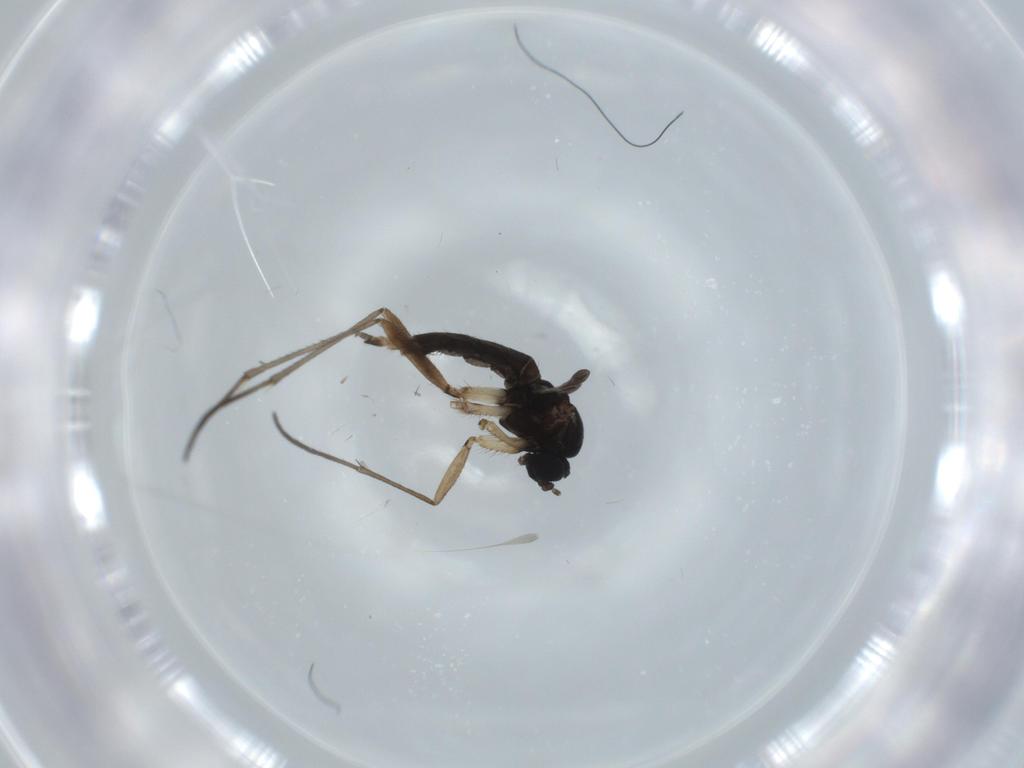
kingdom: Animalia
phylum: Arthropoda
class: Insecta
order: Diptera
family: Sciaridae
